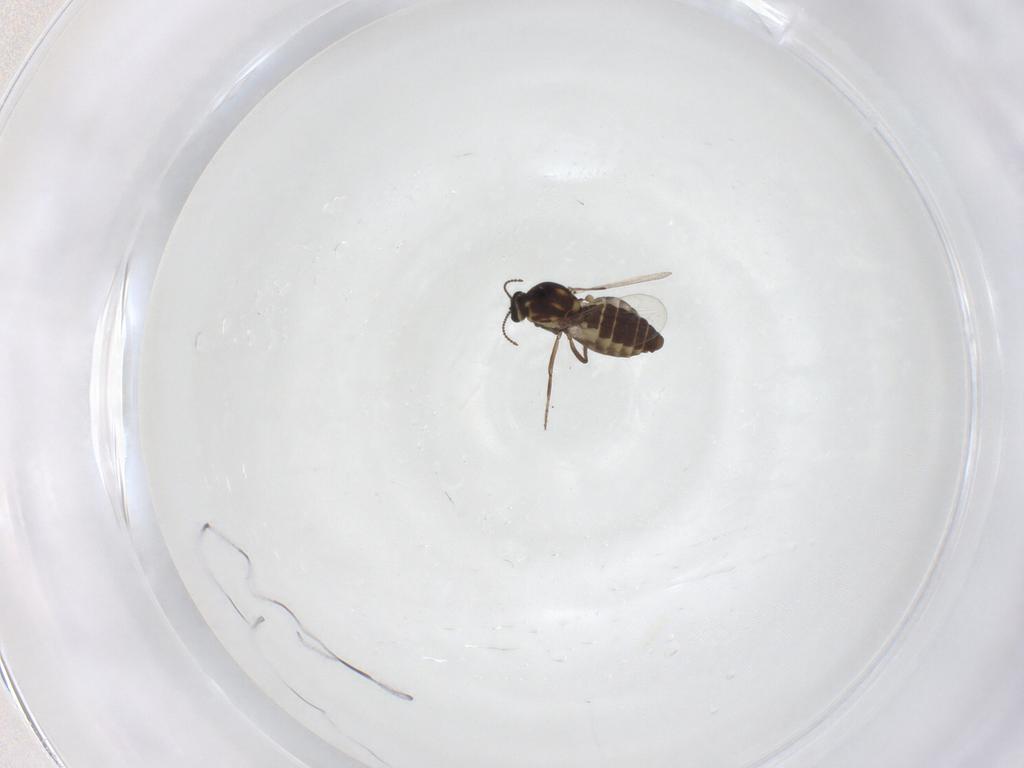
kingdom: Animalia
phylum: Arthropoda
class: Insecta
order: Diptera
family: Ceratopogonidae
